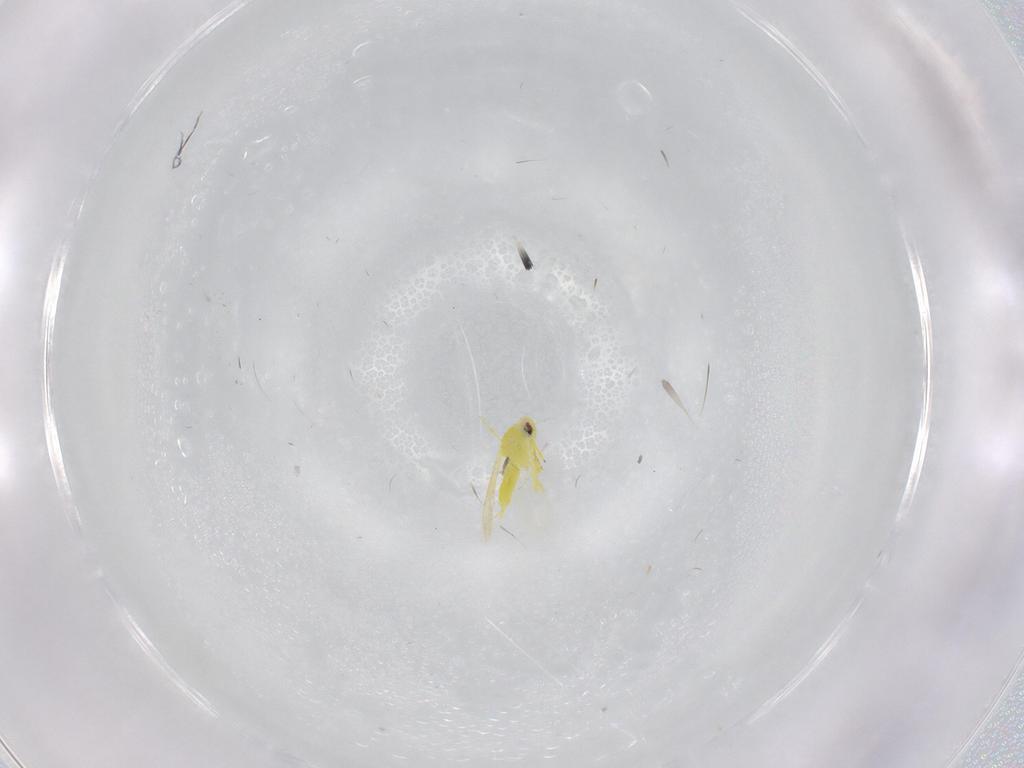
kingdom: Animalia
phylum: Arthropoda
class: Insecta
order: Hemiptera
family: Aleyrodidae
